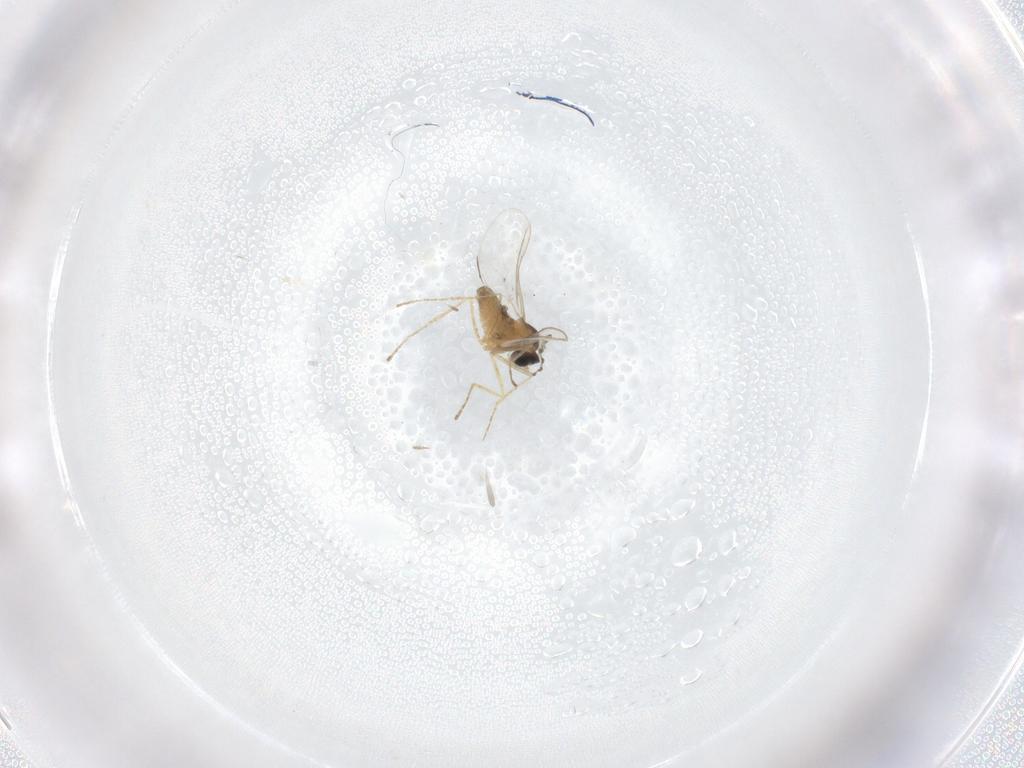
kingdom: Animalia
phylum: Arthropoda
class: Insecta
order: Diptera
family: Cecidomyiidae
